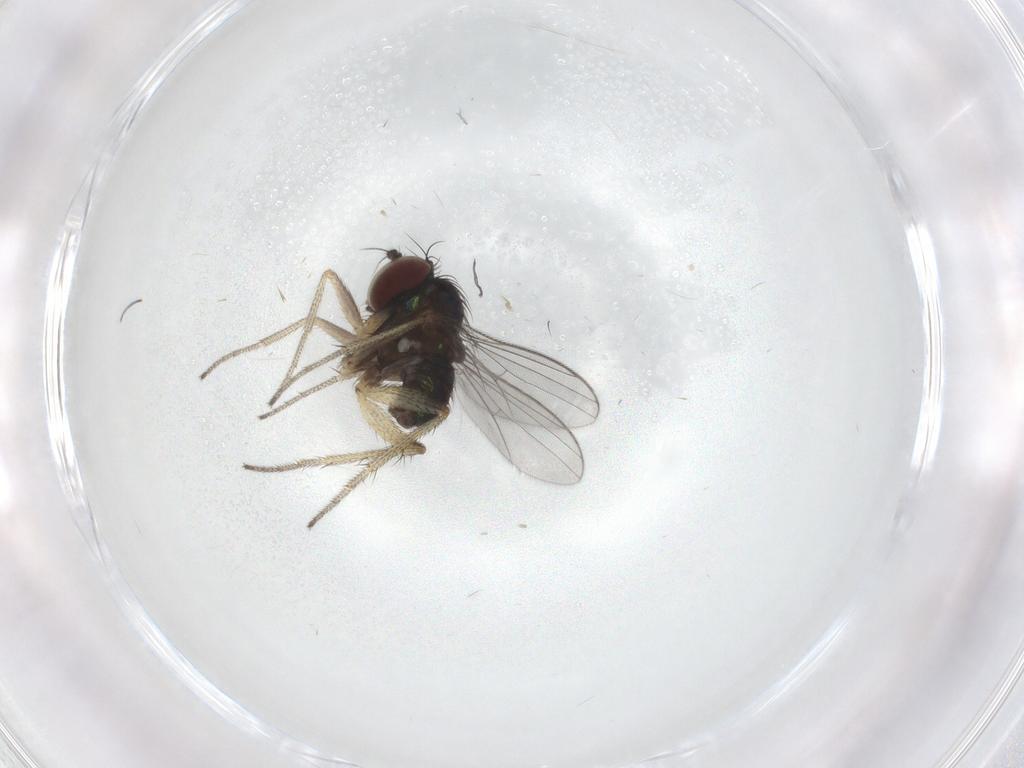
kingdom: Animalia
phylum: Arthropoda
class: Insecta
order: Diptera
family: Dolichopodidae
